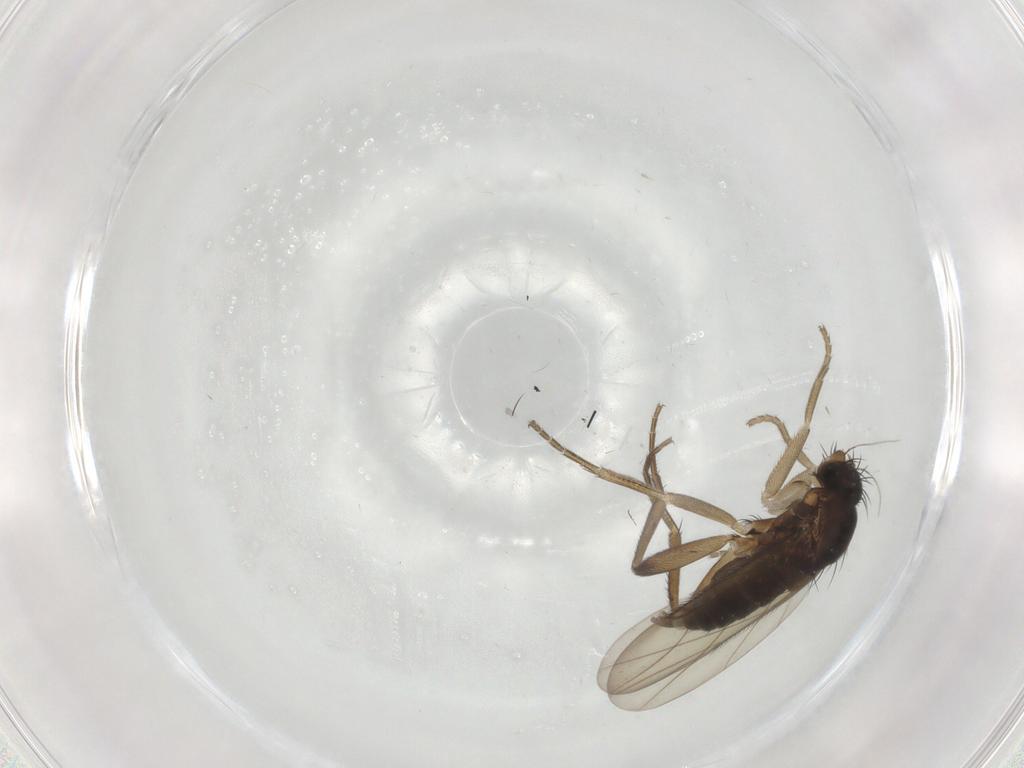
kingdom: Animalia
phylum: Arthropoda
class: Insecta
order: Diptera
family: Phoridae
